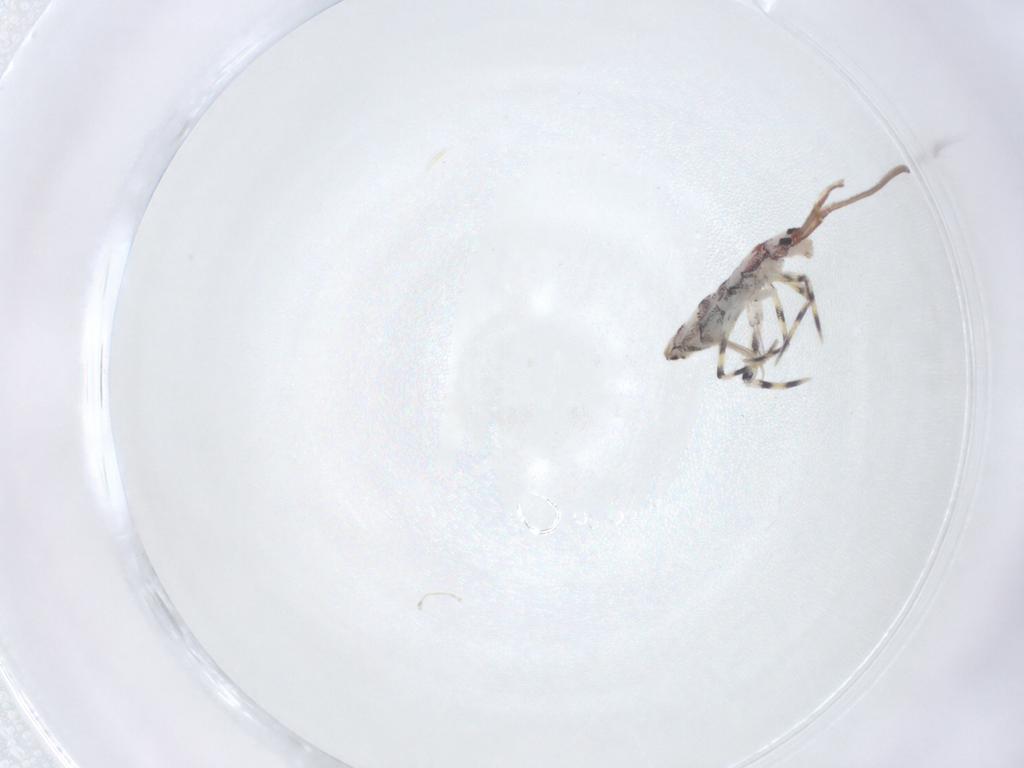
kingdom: Animalia
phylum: Arthropoda
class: Collembola
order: Entomobryomorpha
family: Entomobryidae
